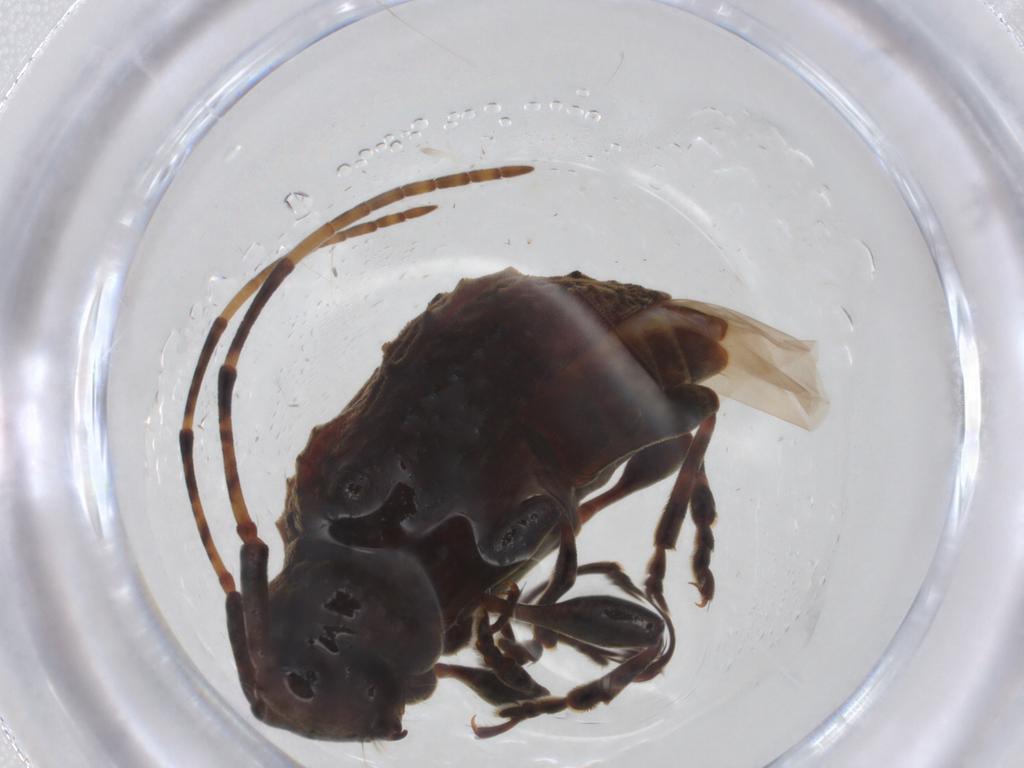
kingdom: Animalia
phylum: Arthropoda
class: Insecta
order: Coleoptera
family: Cerambycidae
